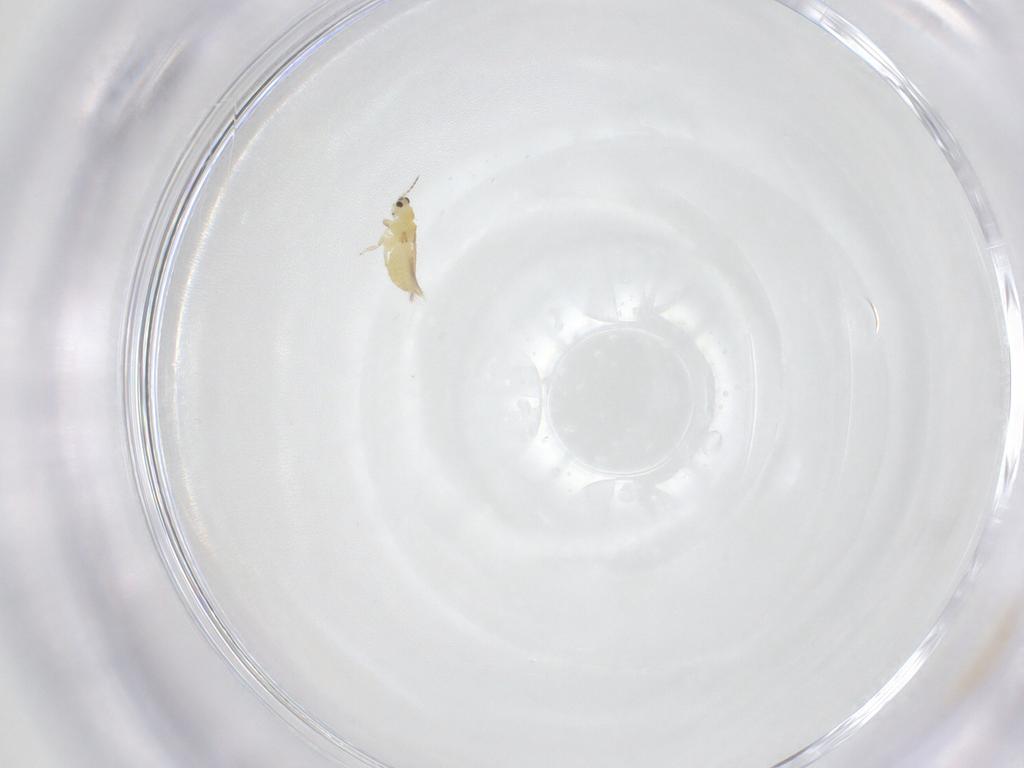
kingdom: Animalia
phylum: Arthropoda
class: Insecta
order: Thysanoptera
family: Thripidae
